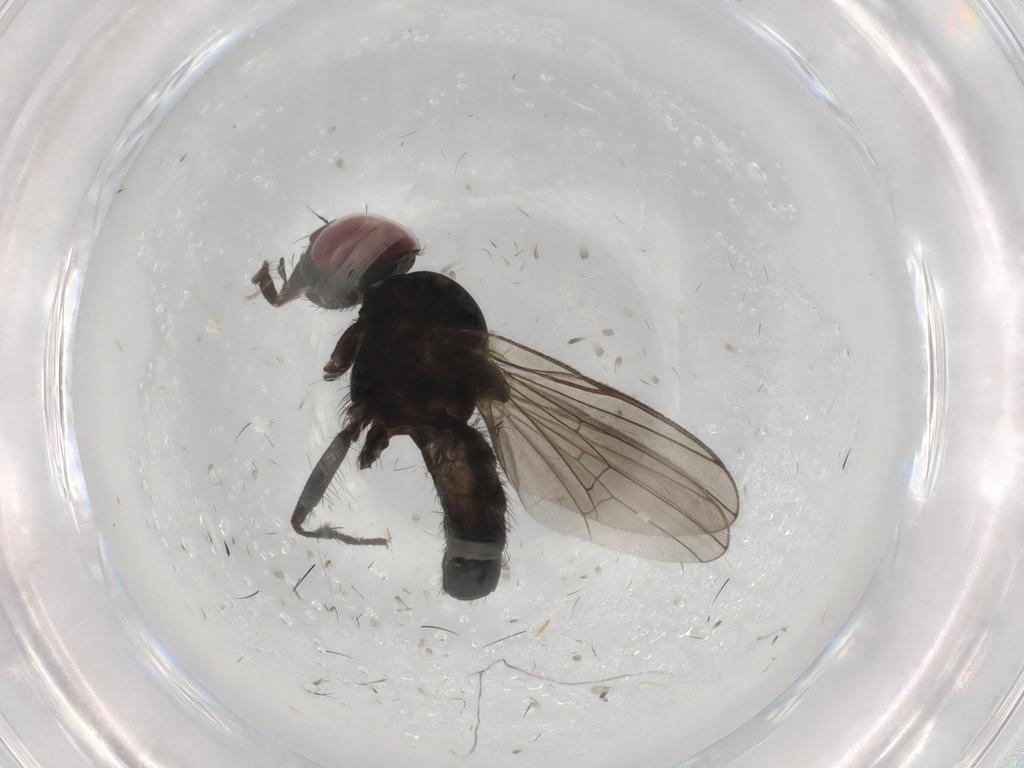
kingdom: Animalia
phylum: Arthropoda
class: Insecta
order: Diptera
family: Fannia
